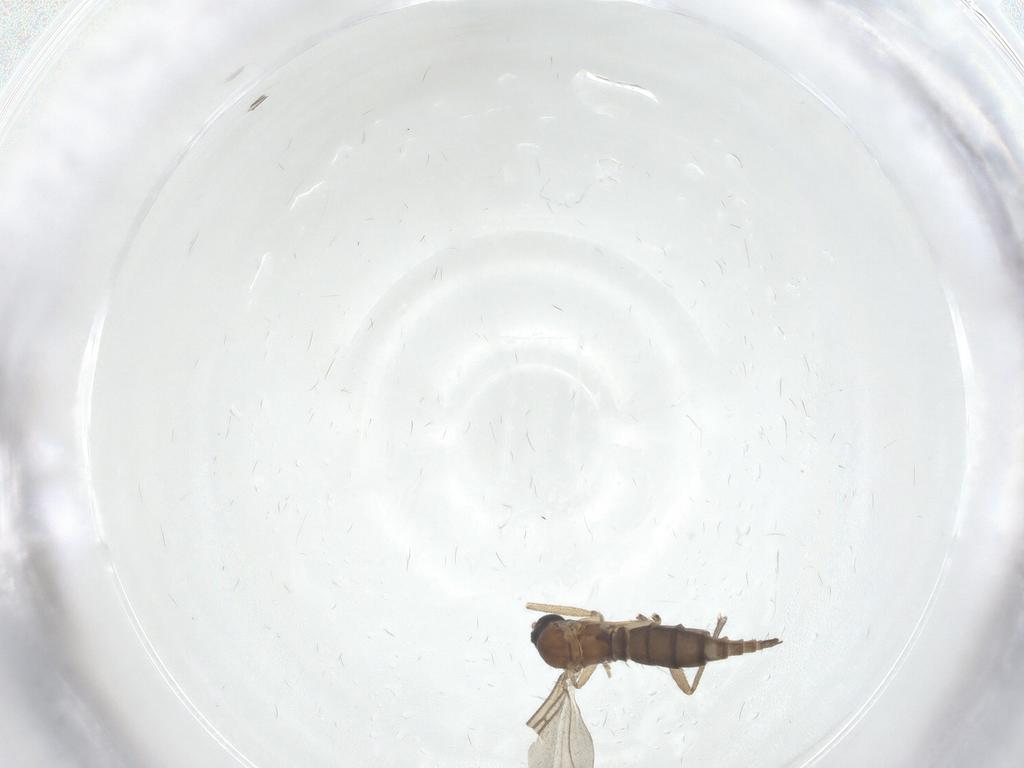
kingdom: Animalia
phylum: Arthropoda
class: Insecta
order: Diptera
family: Sciaridae
